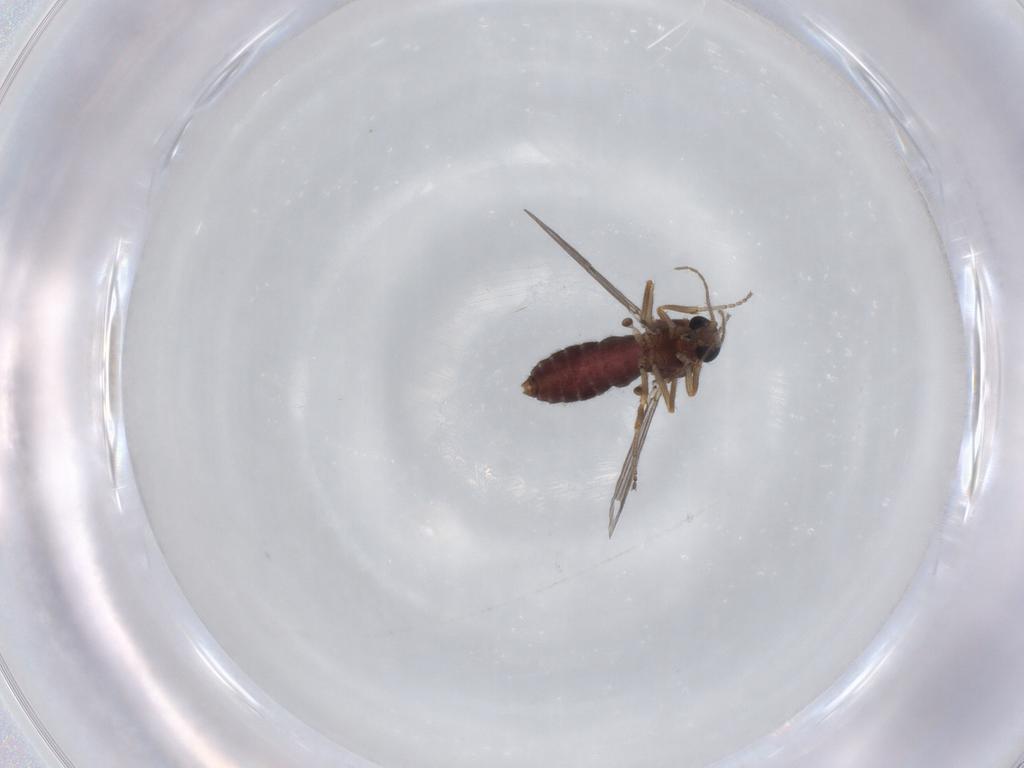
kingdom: Animalia
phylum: Arthropoda
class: Insecta
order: Diptera
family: Ceratopogonidae
